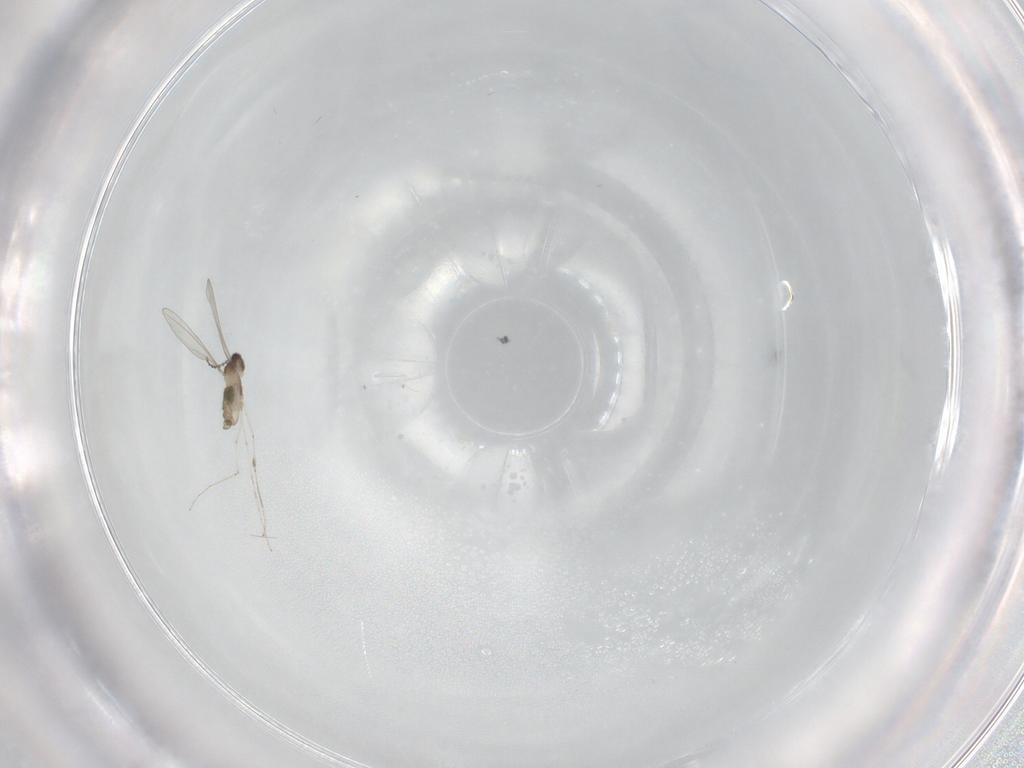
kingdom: Animalia
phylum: Arthropoda
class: Insecta
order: Diptera
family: Cecidomyiidae
